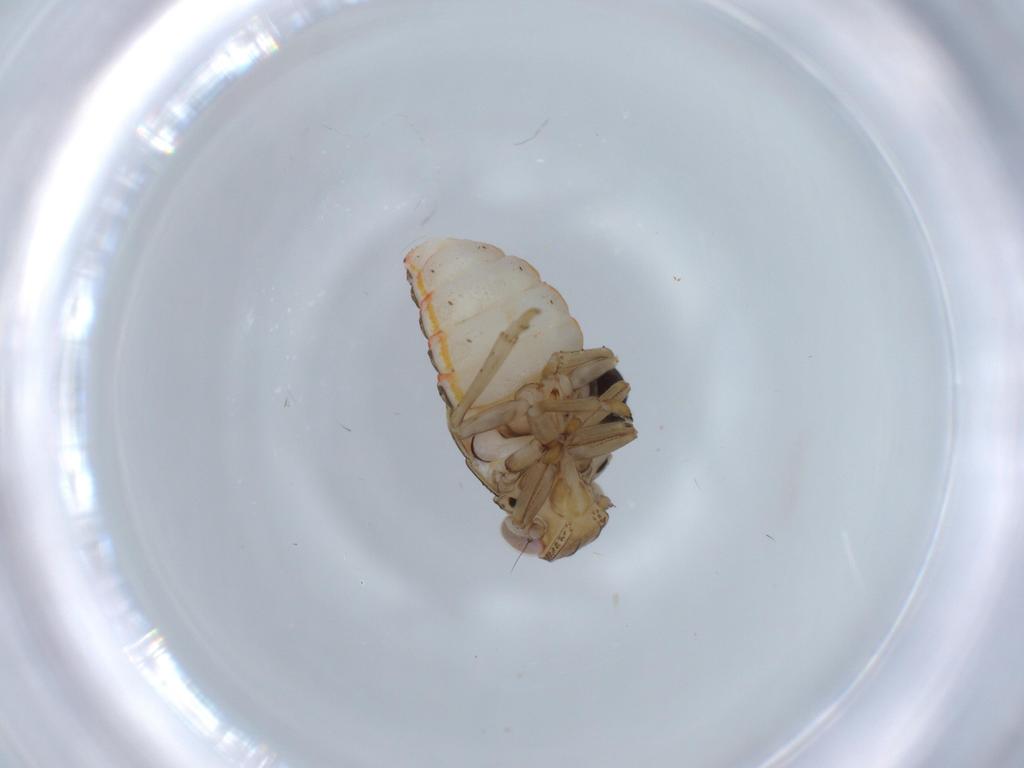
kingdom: Animalia
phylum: Arthropoda
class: Insecta
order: Hemiptera
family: Issidae
